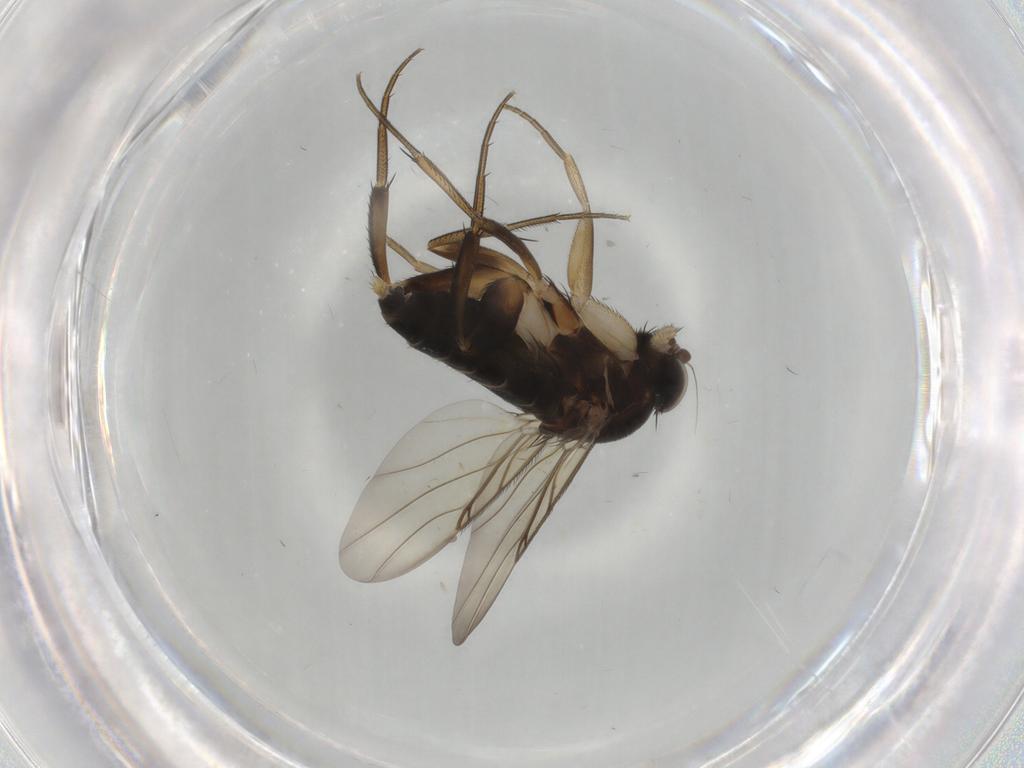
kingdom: Animalia
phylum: Arthropoda
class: Insecta
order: Diptera
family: Phoridae
